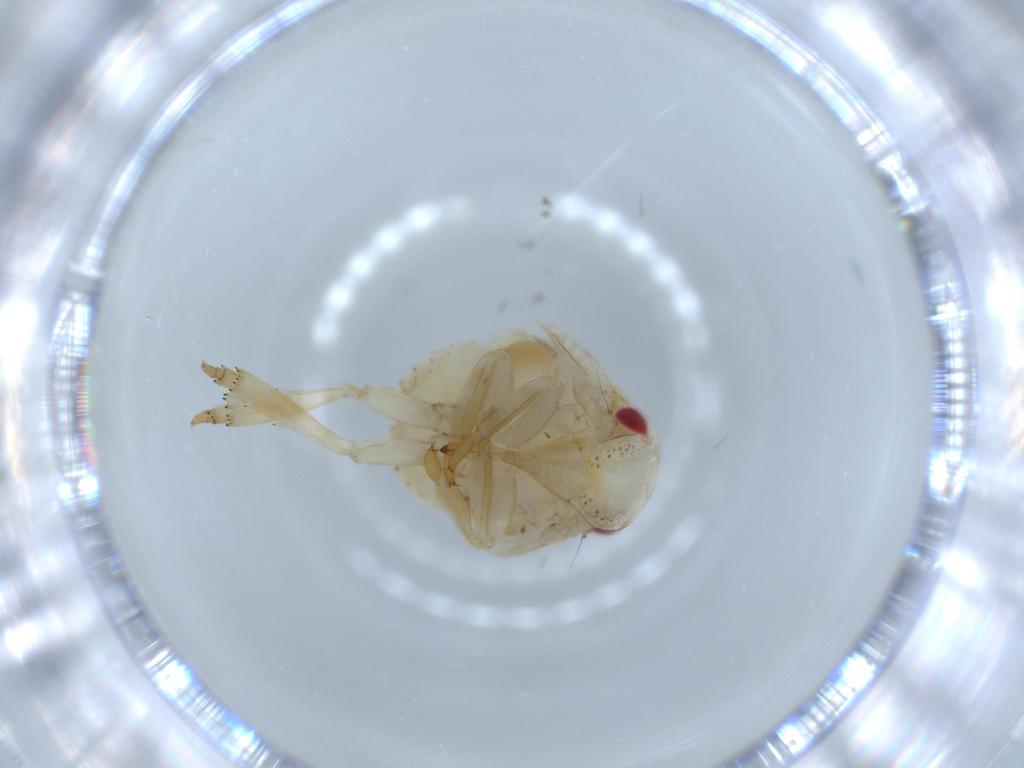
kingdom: Animalia
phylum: Arthropoda
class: Insecta
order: Hemiptera
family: Acanaloniidae
